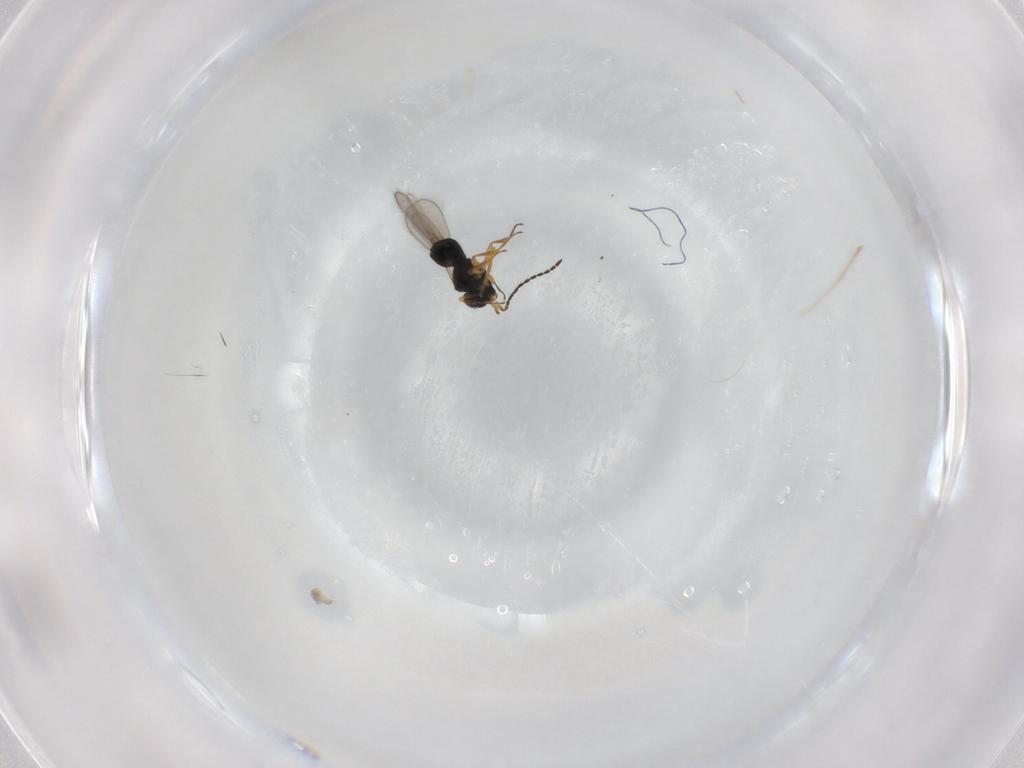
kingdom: Animalia
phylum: Arthropoda
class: Insecta
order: Hymenoptera
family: Scelionidae
